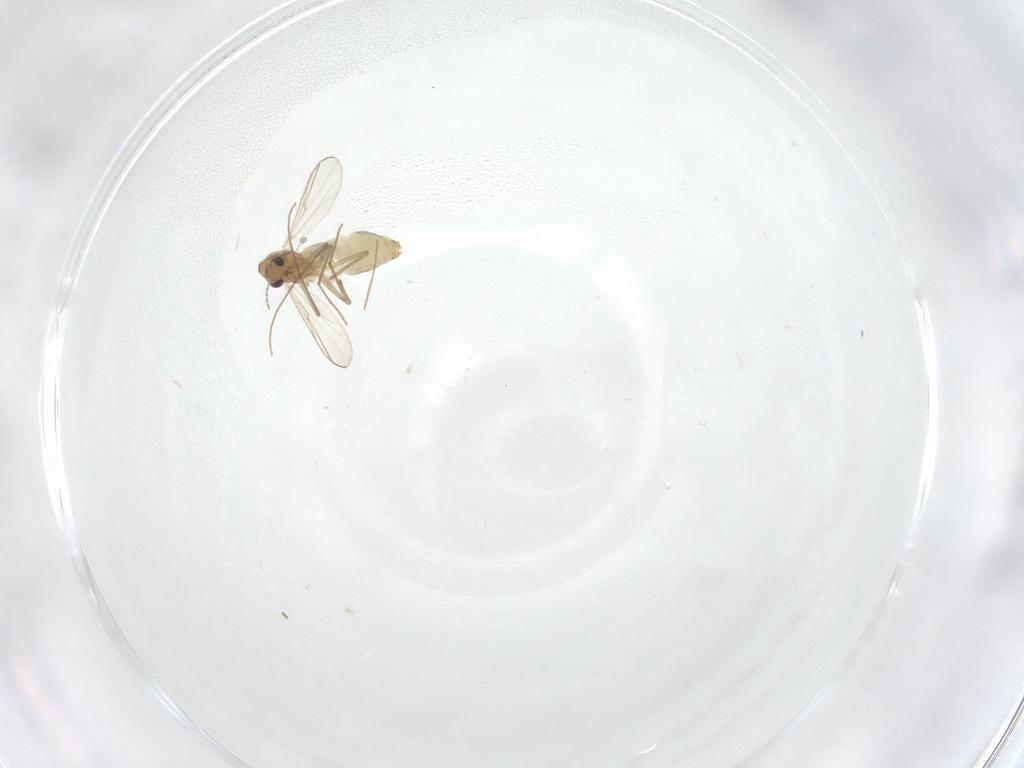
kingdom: Animalia
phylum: Arthropoda
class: Insecta
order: Diptera
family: Chironomidae
